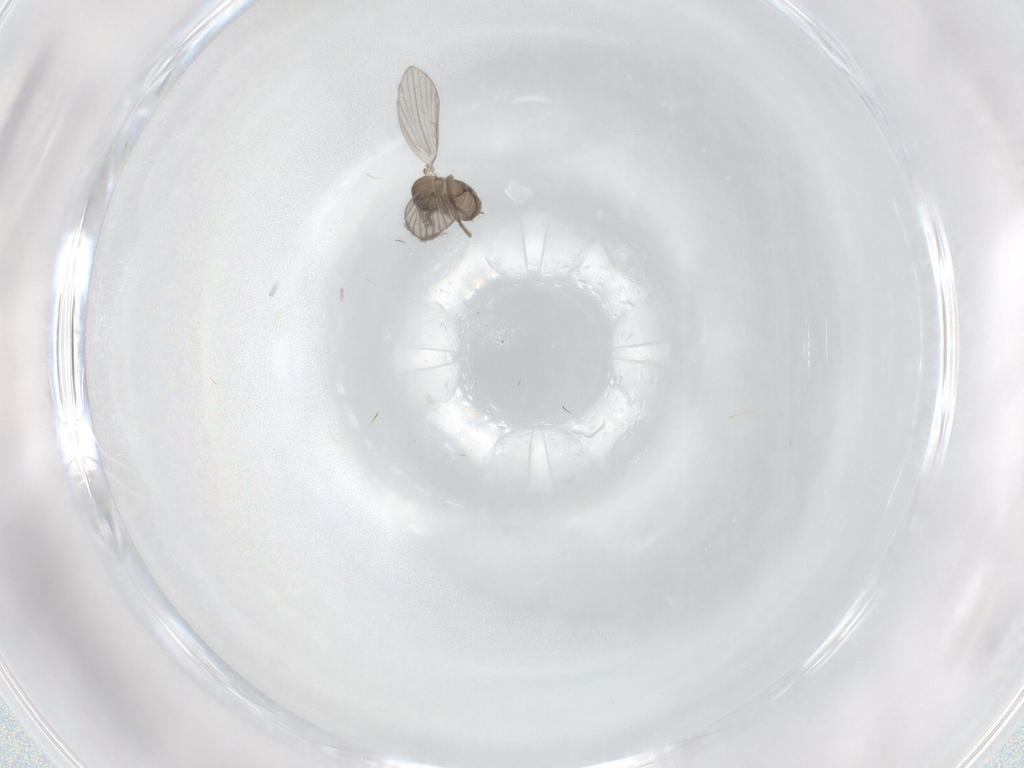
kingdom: Animalia
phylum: Arthropoda
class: Insecta
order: Diptera
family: Psychodidae
